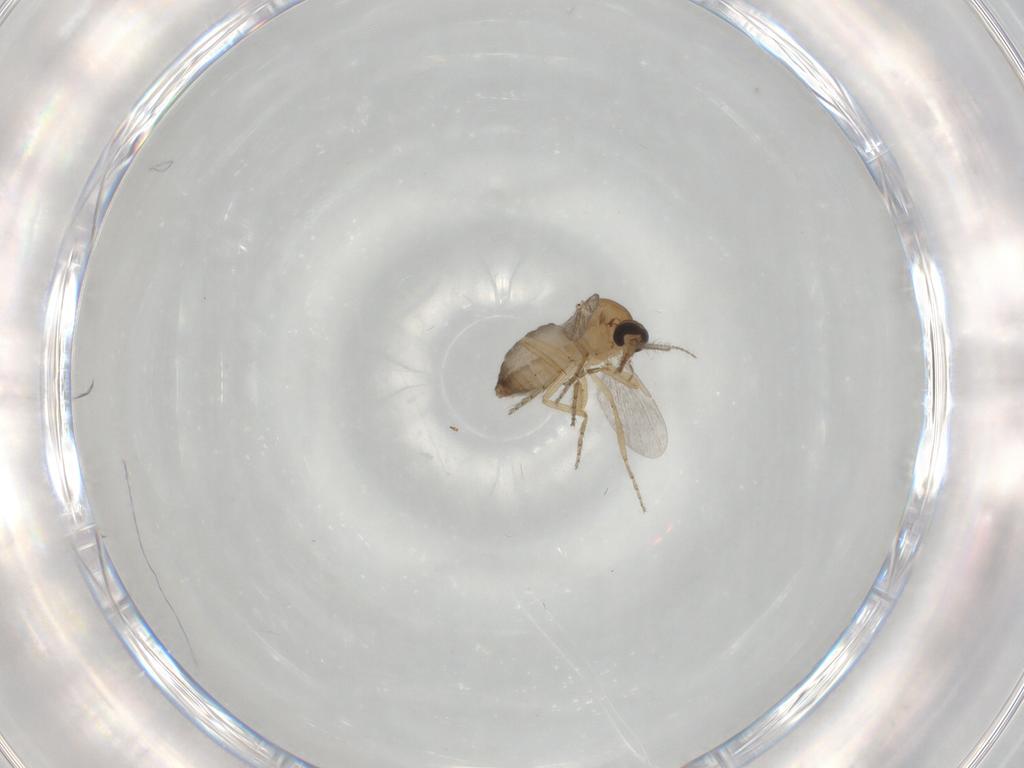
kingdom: Animalia
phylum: Arthropoda
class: Insecta
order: Diptera
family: Ceratopogonidae
